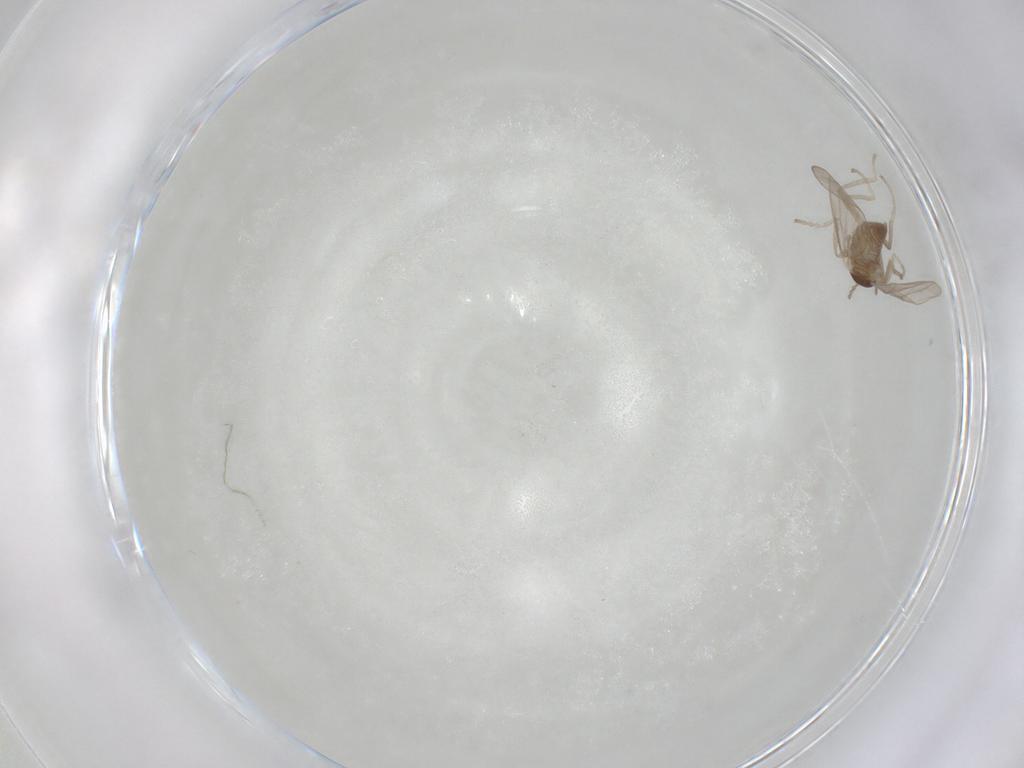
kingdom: Animalia
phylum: Arthropoda
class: Insecta
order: Diptera
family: Cecidomyiidae
